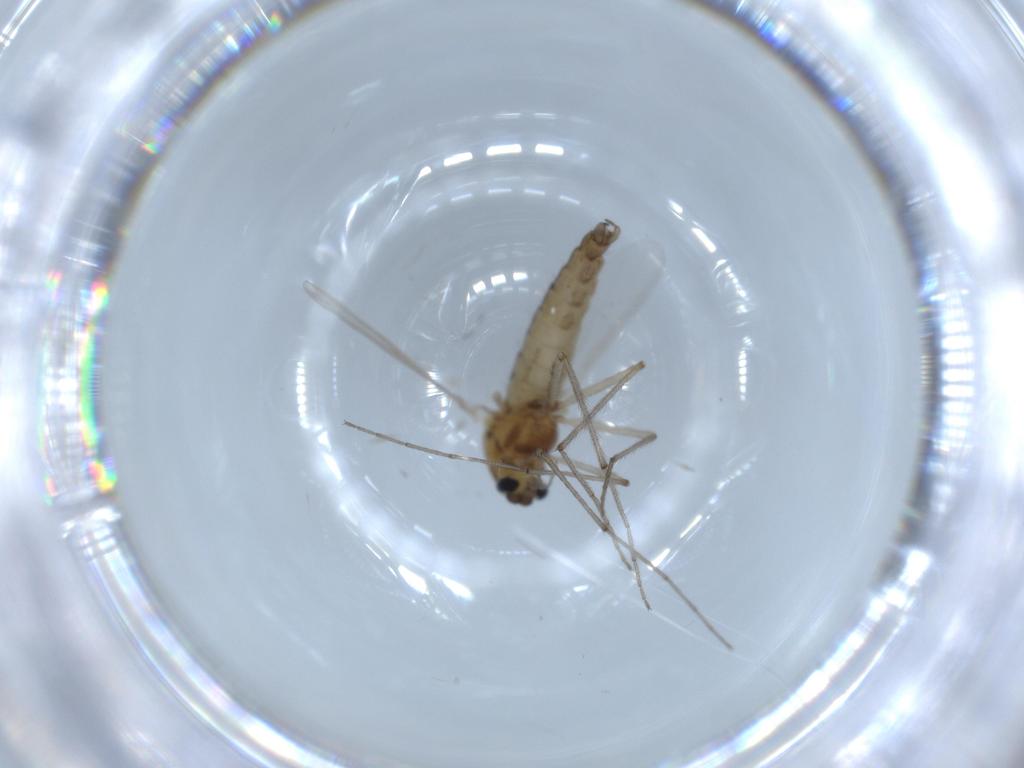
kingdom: Animalia
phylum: Arthropoda
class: Insecta
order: Diptera
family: Chironomidae
